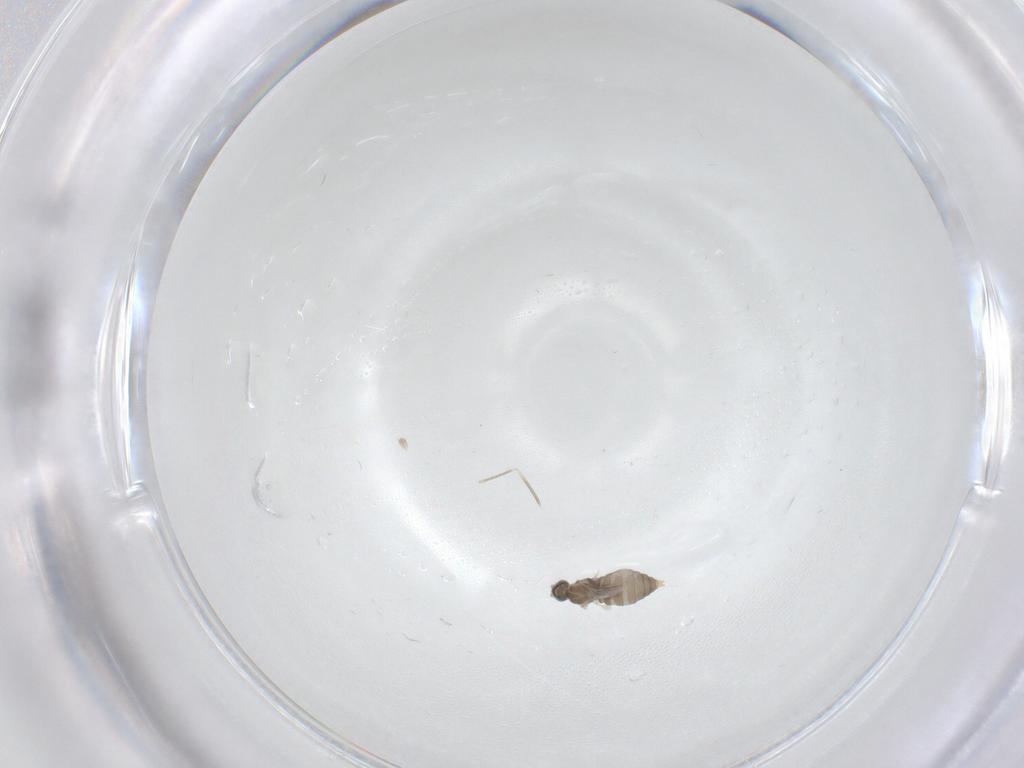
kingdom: Animalia
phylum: Arthropoda
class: Insecta
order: Diptera
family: Cecidomyiidae
